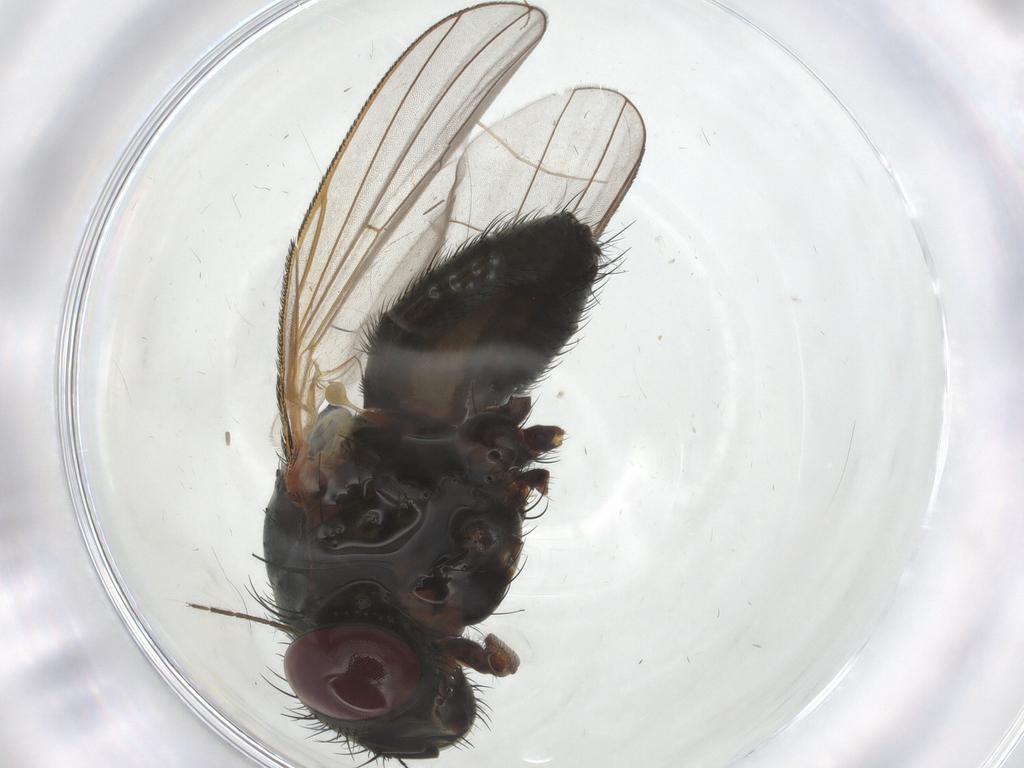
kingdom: Animalia
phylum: Arthropoda
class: Insecta
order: Diptera
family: Fannia
